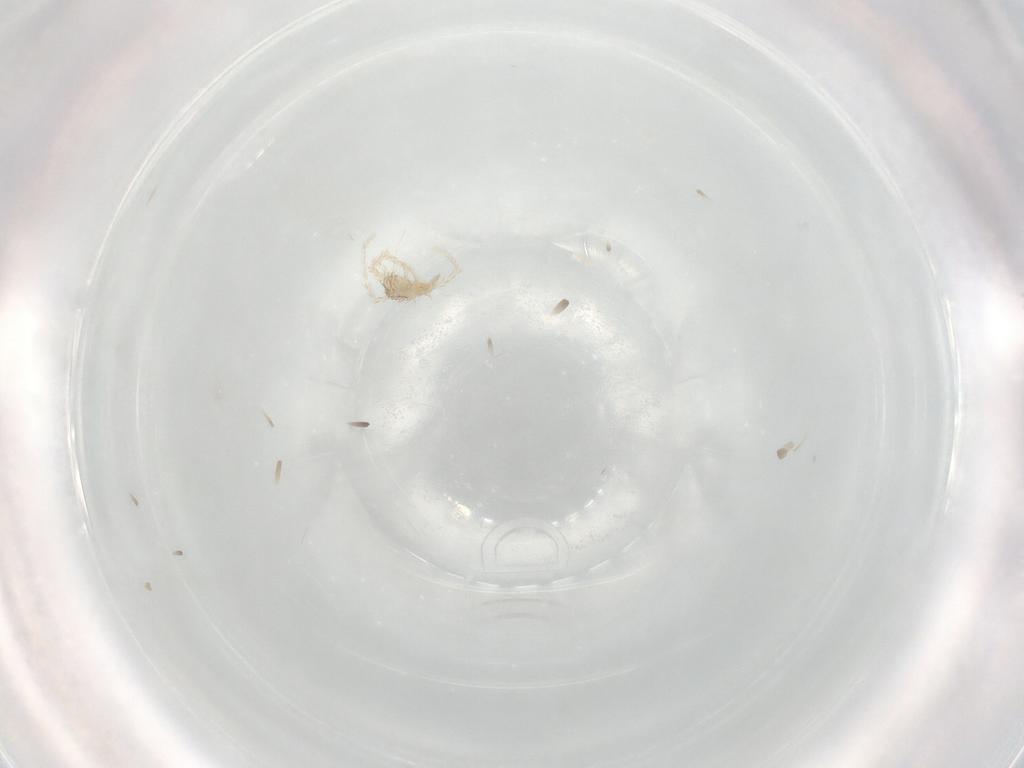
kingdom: Animalia
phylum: Arthropoda
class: Arachnida
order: Trombidiformes
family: Erythraeidae
